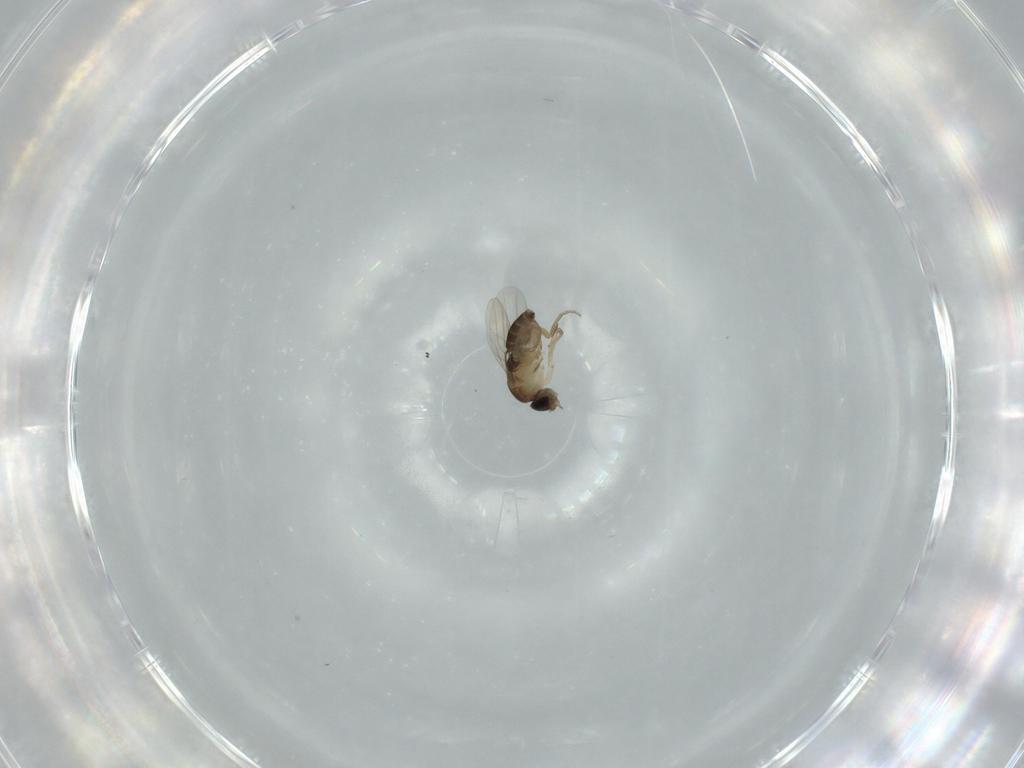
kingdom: Animalia
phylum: Arthropoda
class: Insecta
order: Diptera
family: Phoridae
